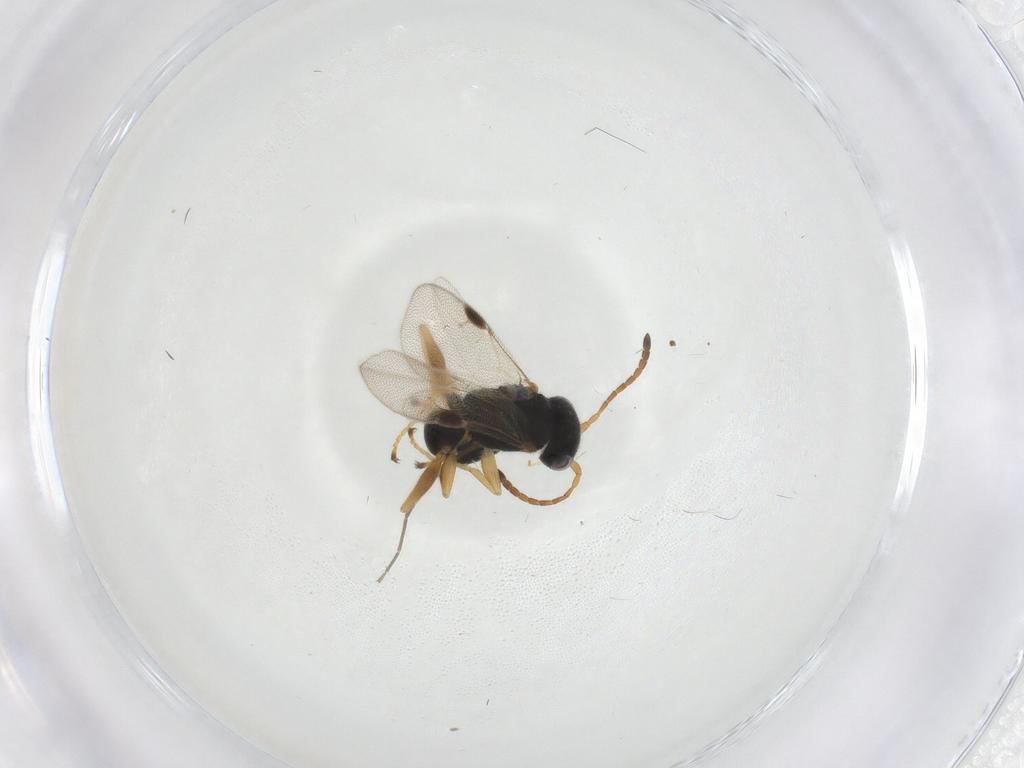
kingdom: Animalia
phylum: Arthropoda
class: Insecta
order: Hymenoptera
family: Dryinidae
